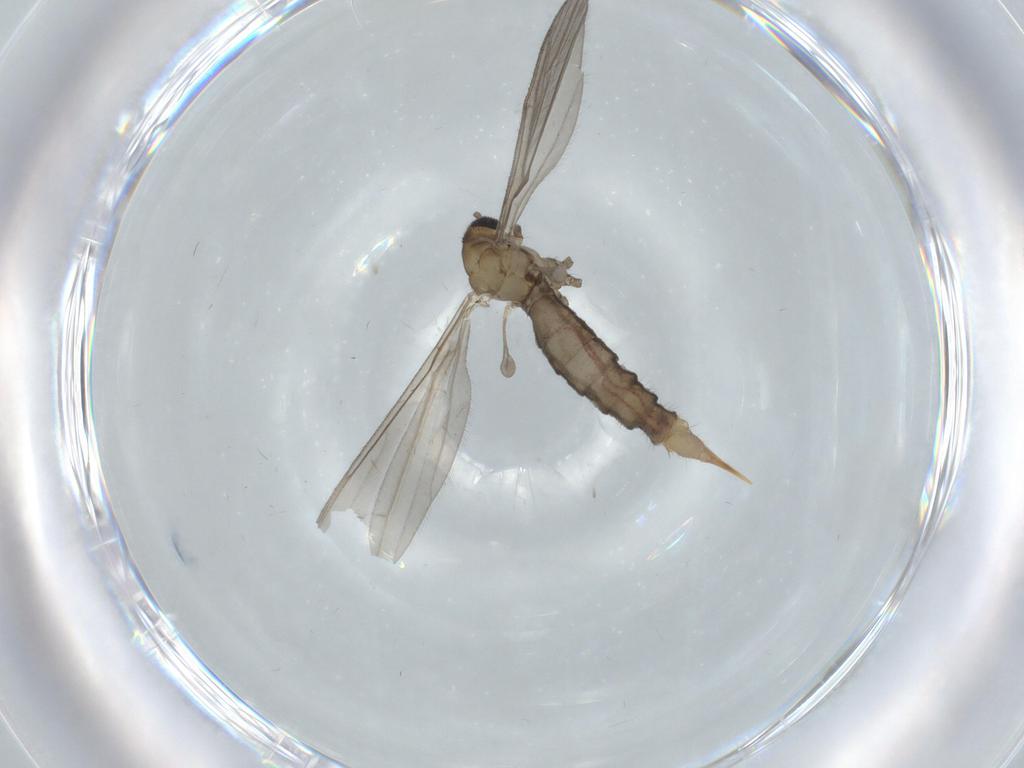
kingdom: Animalia
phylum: Arthropoda
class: Insecta
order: Diptera
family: Limoniidae
